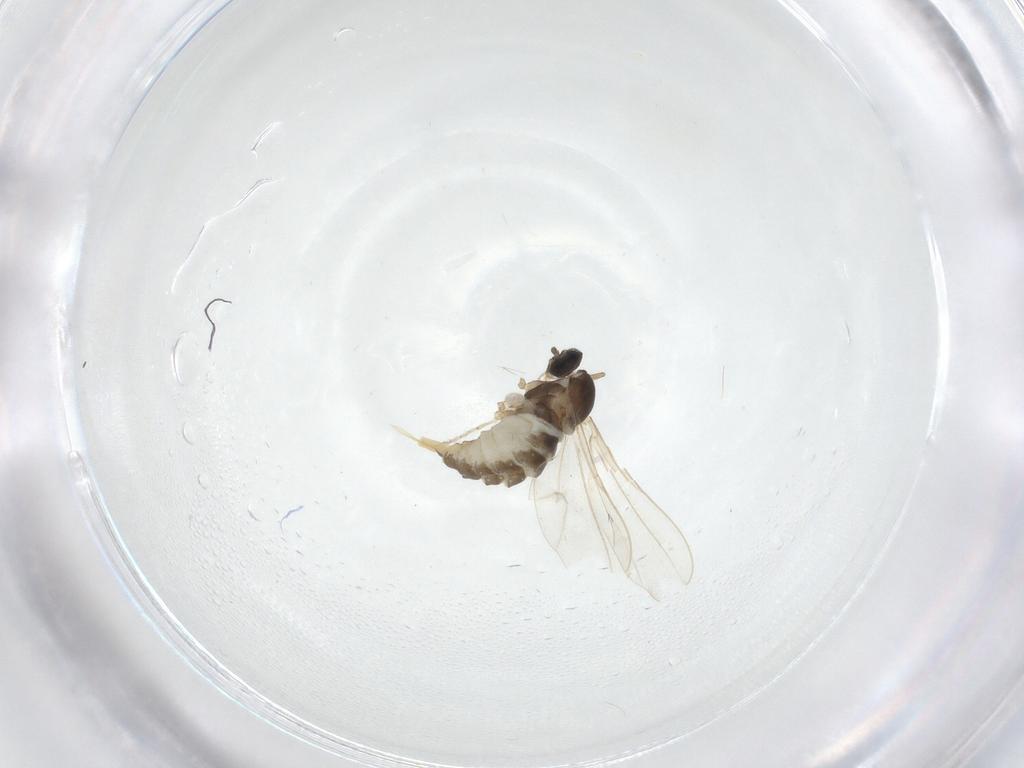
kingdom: Animalia
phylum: Arthropoda
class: Insecta
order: Diptera
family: Cecidomyiidae
